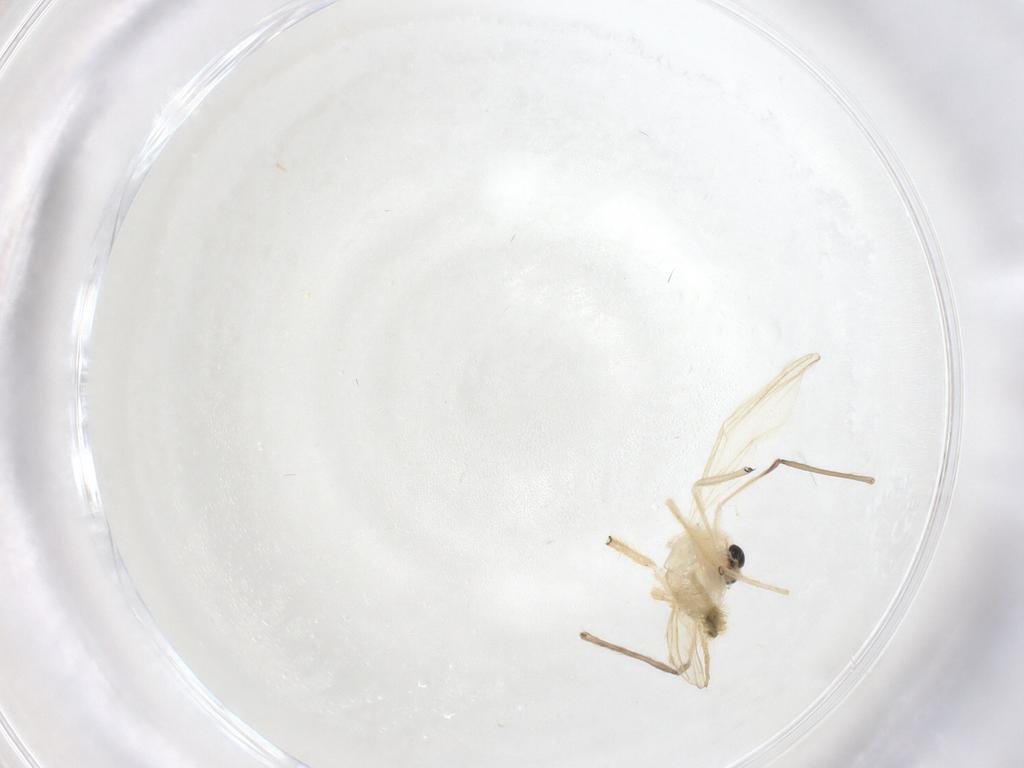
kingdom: Animalia
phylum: Arthropoda
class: Insecta
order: Diptera
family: Chironomidae
